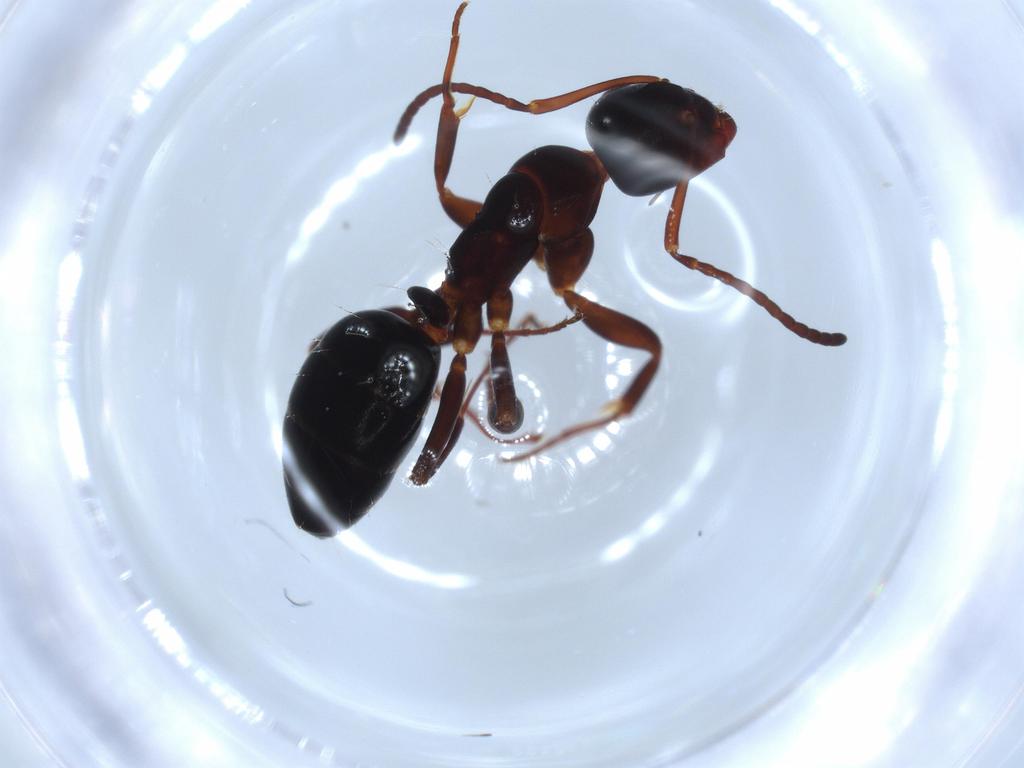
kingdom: Animalia
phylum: Arthropoda
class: Insecta
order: Hymenoptera
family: Formicidae
